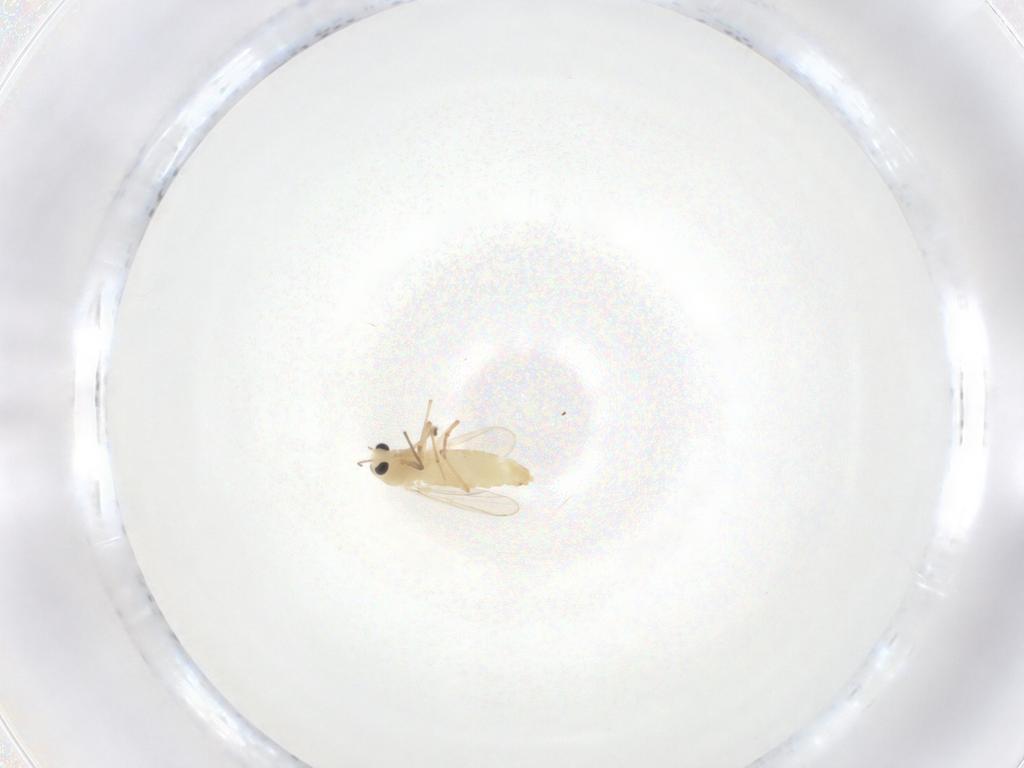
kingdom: Animalia
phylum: Arthropoda
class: Insecta
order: Diptera
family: Chironomidae
